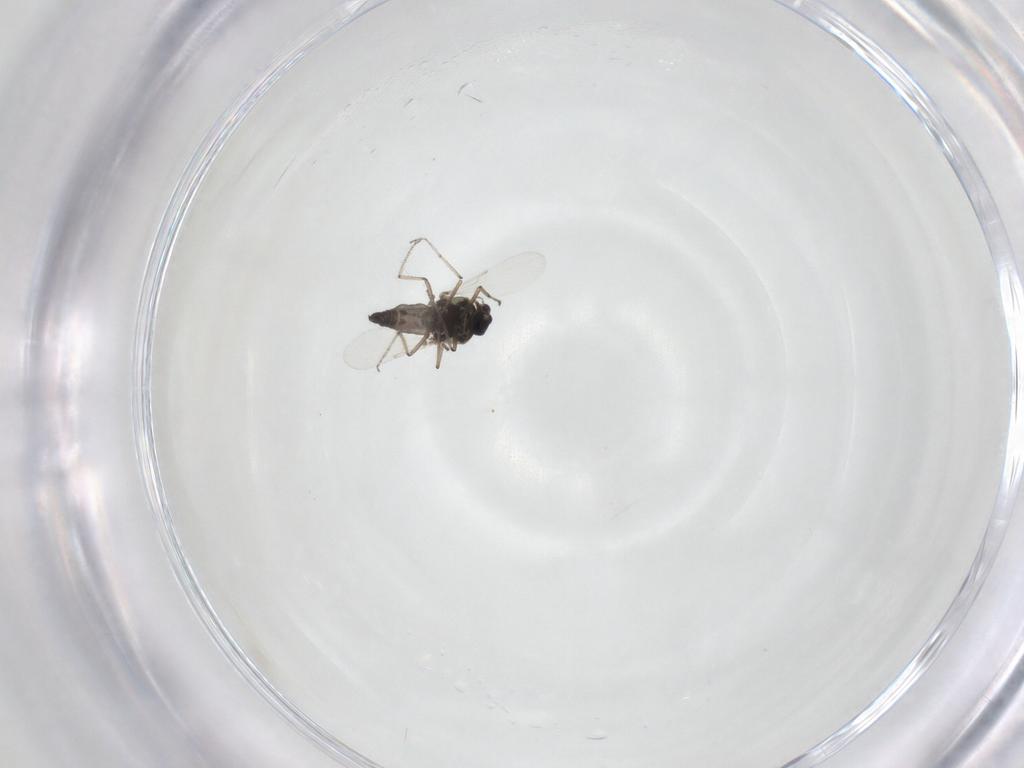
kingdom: Animalia
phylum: Arthropoda
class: Insecta
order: Diptera
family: Ceratopogonidae
